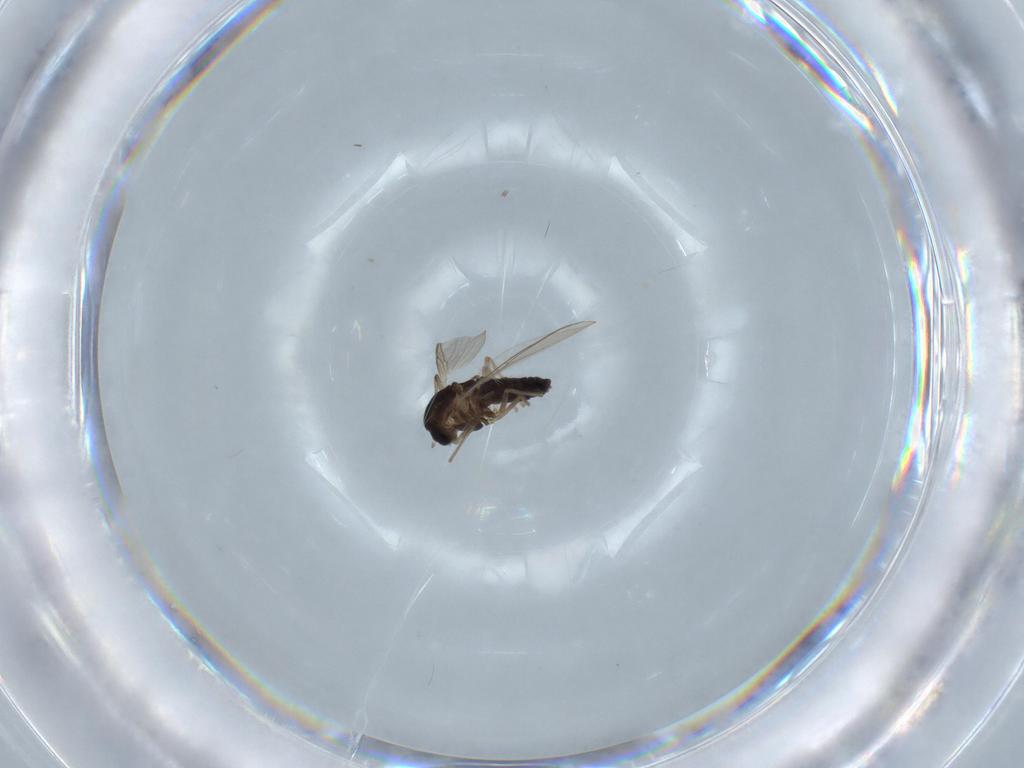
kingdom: Animalia
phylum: Arthropoda
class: Insecta
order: Diptera
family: Chironomidae
